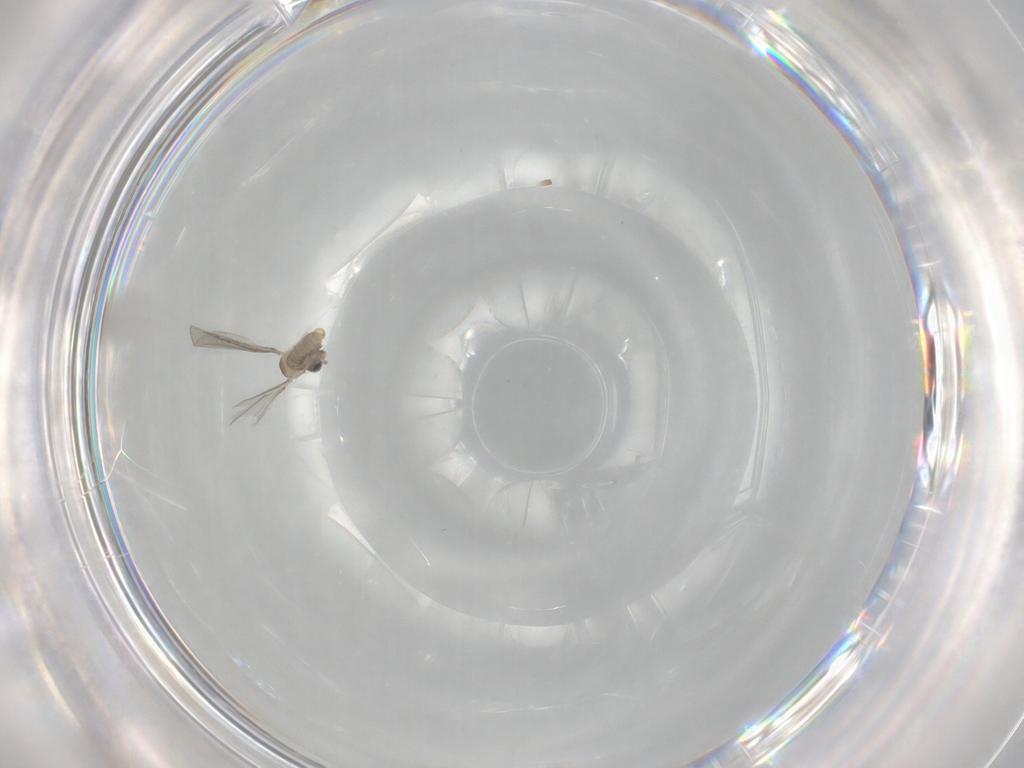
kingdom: Animalia
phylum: Arthropoda
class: Insecta
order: Diptera
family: Cecidomyiidae
